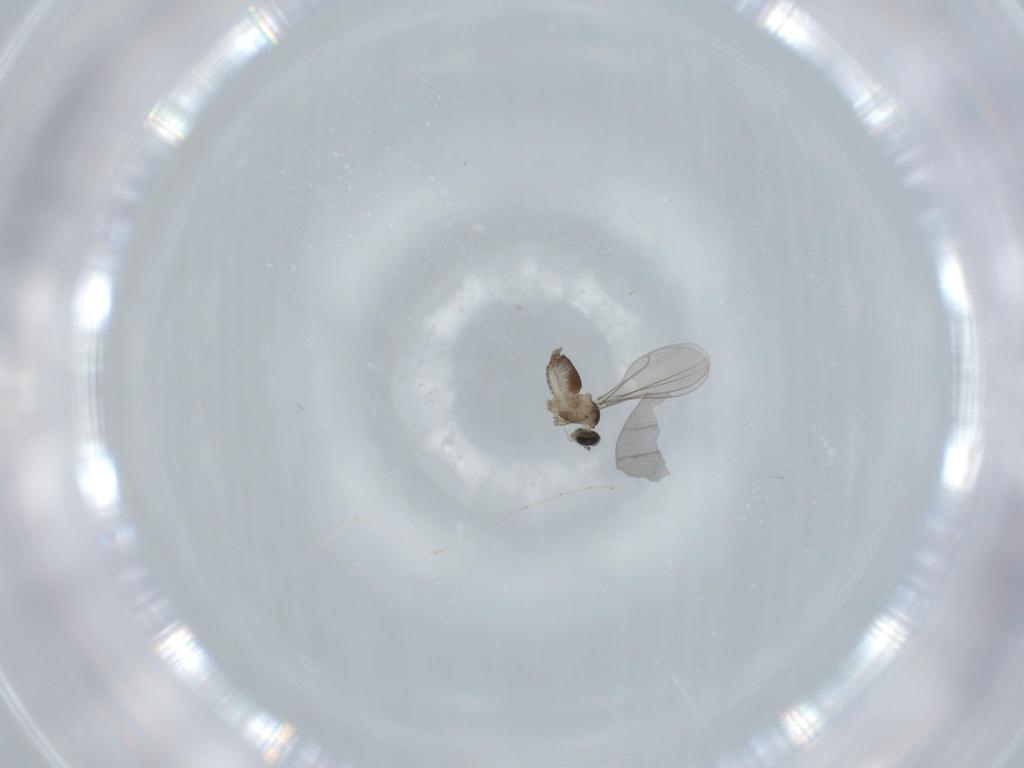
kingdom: Animalia
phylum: Arthropoda
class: Insecta
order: Diptera
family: Cecidomyiidae
